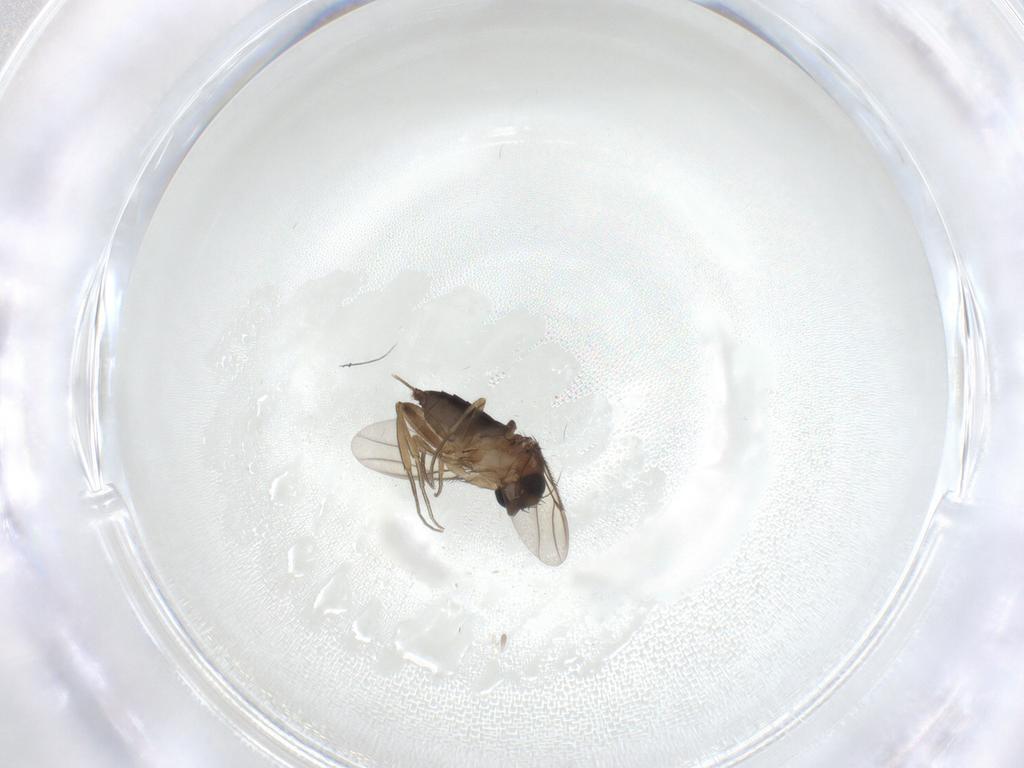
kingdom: Animalia
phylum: Arthropoda
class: Insecta
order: Diptera
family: Phoridae
